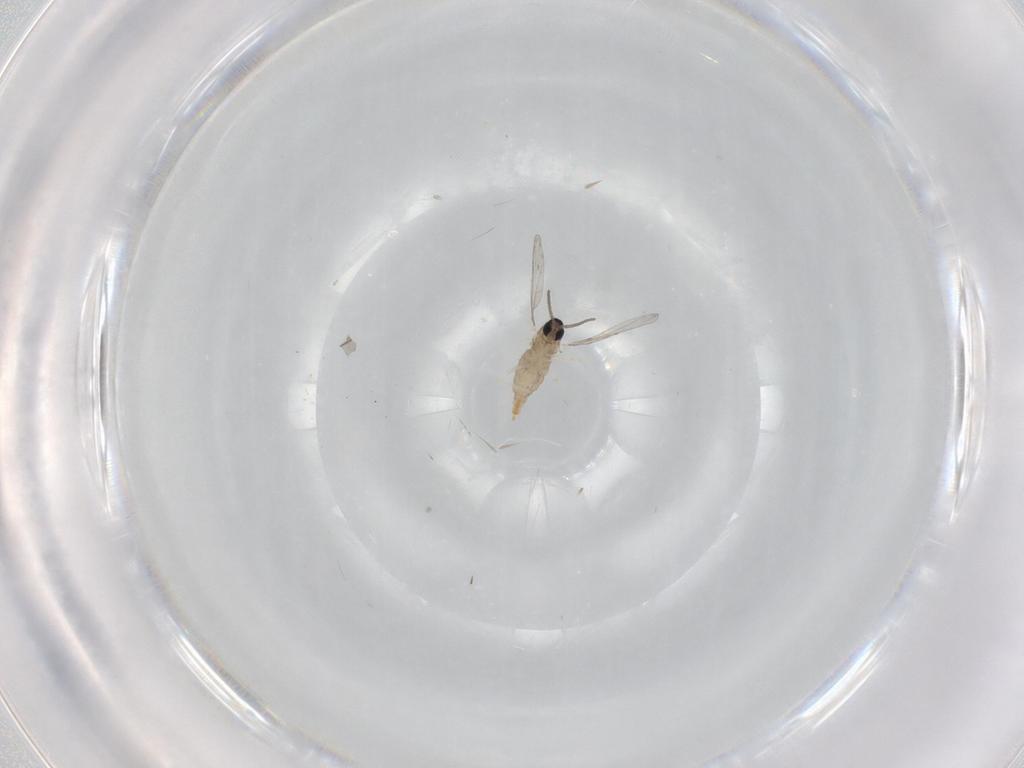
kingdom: Animalia
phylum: Arthropoda
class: Insecta
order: Diptera
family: Cecidomyiidae
